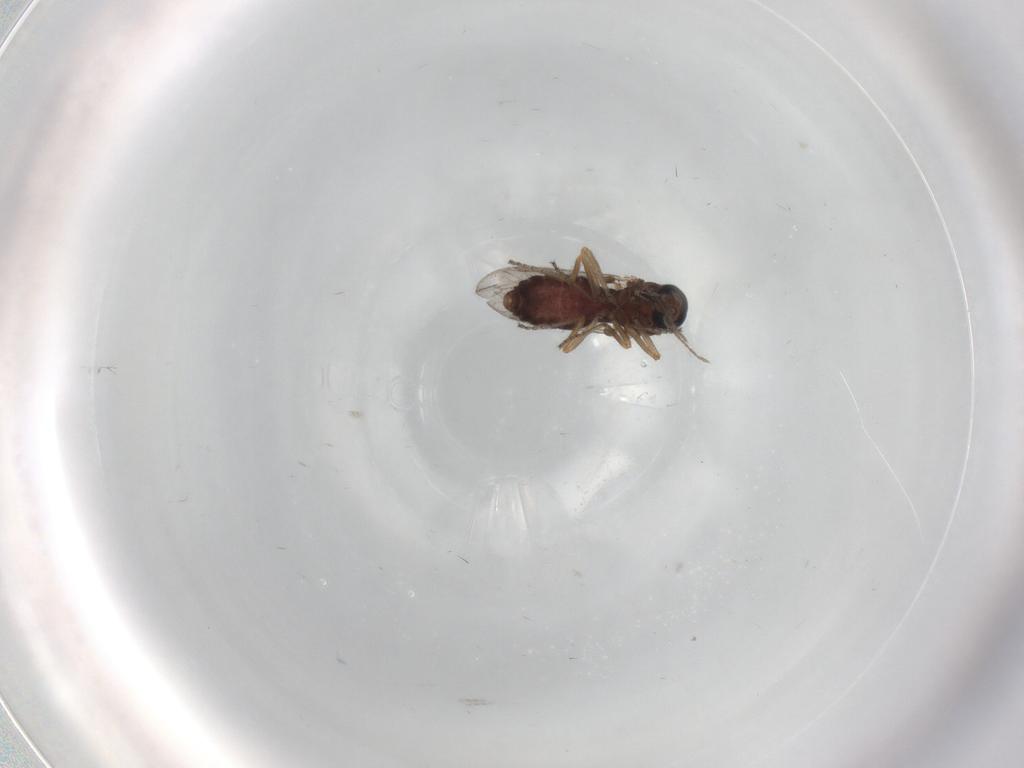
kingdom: Animalia
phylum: Arthropoda
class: Insecta
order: Diptera
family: Ceratopogonidae
